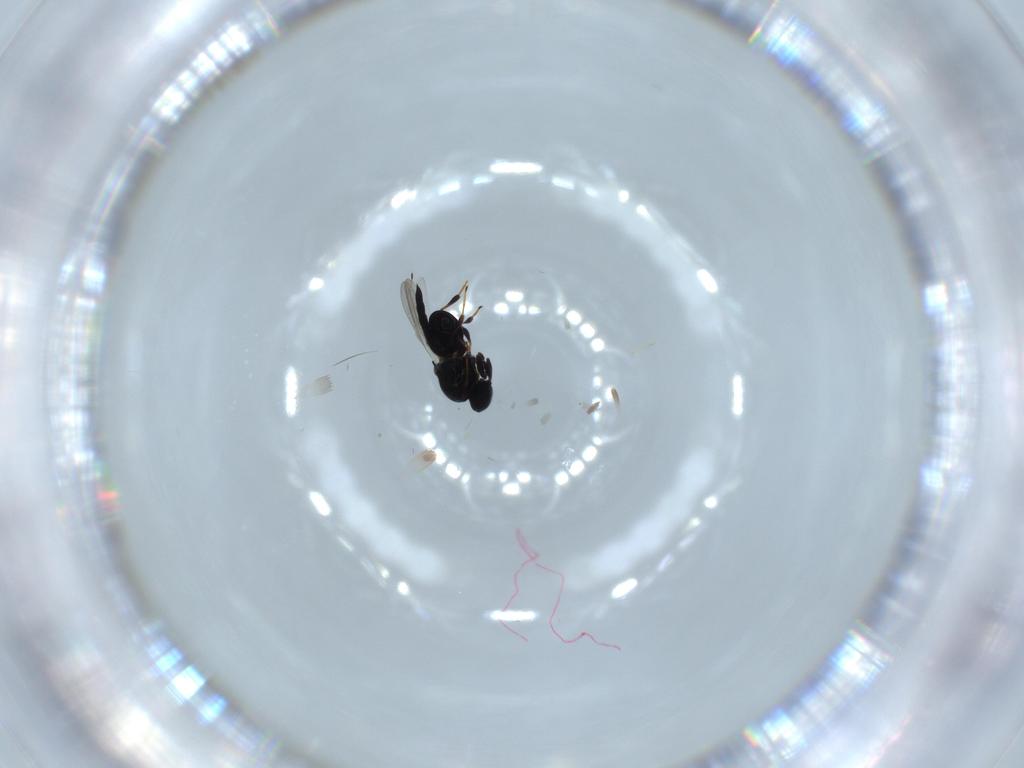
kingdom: Animalia
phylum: Arthropoda
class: Insecta
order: Hymenoptera
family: Platygastridae
